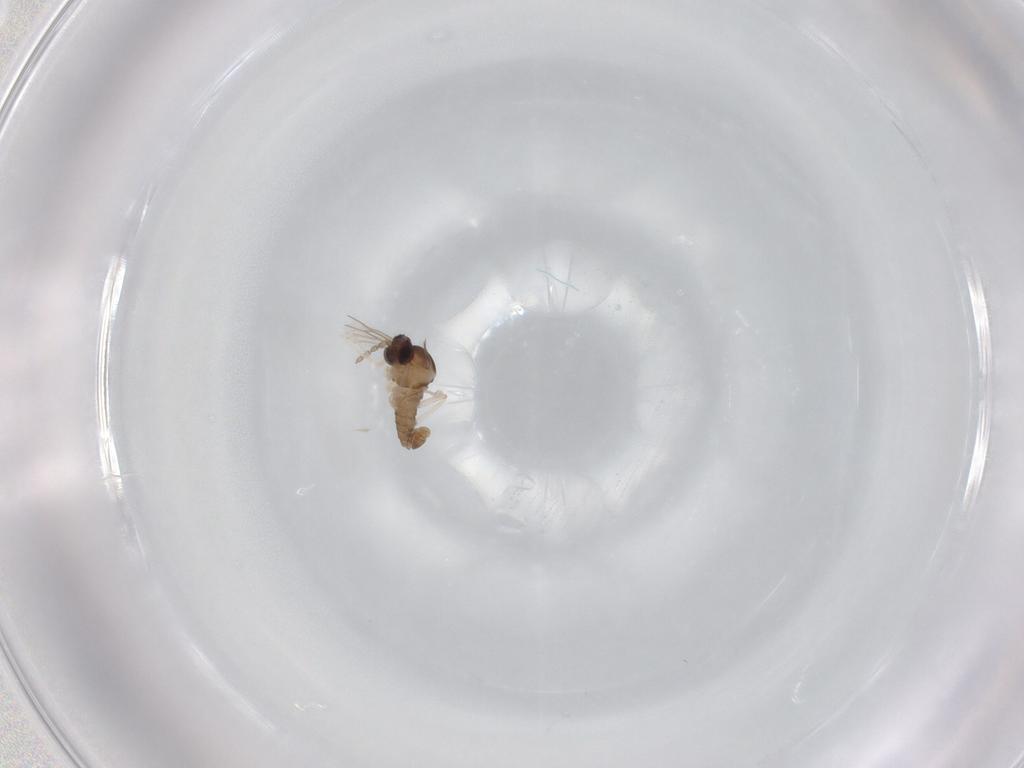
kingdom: Animalia
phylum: Arthropoda
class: Insecta
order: Diptera
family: Cecidomyiidae
